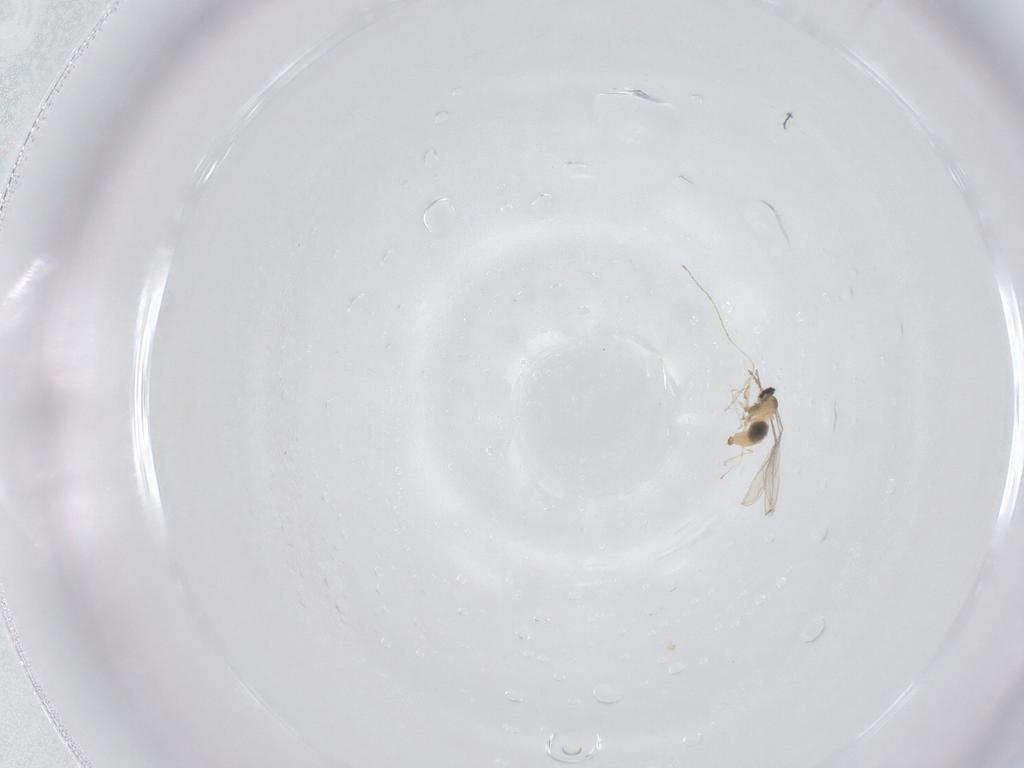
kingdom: Animalia
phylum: Arthropoda
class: Insecta
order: Diptera
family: Cecidomyiidae
